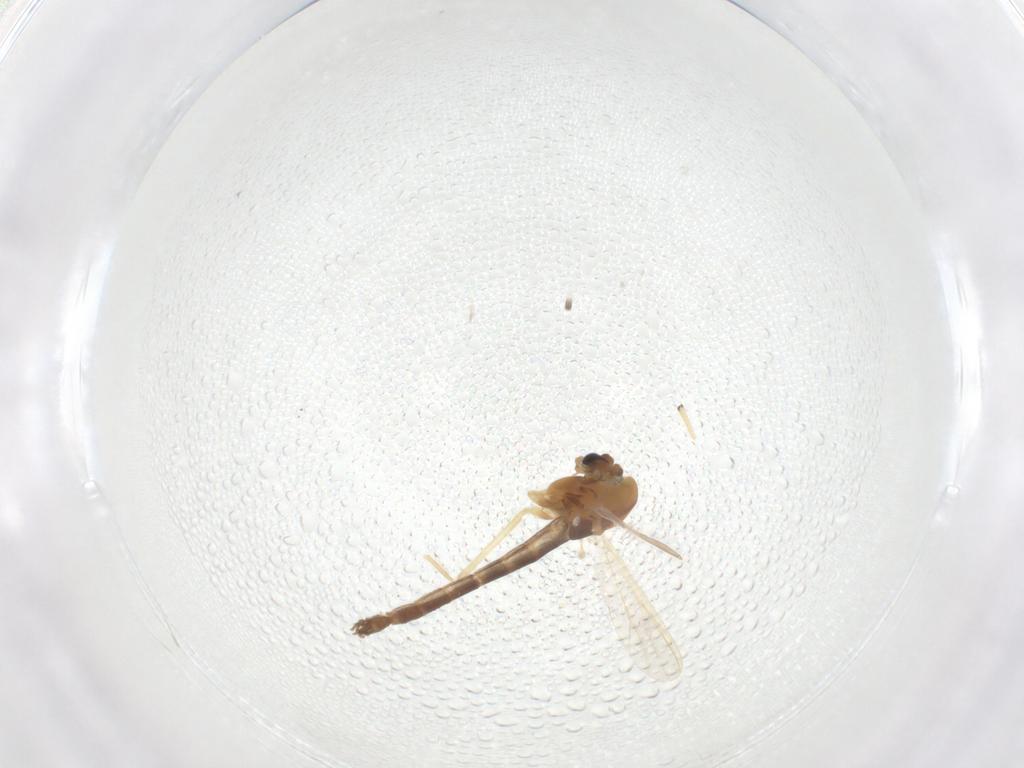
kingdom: Animalia
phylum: Arthropoda
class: Insecta
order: Diptera
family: Chironomidae
